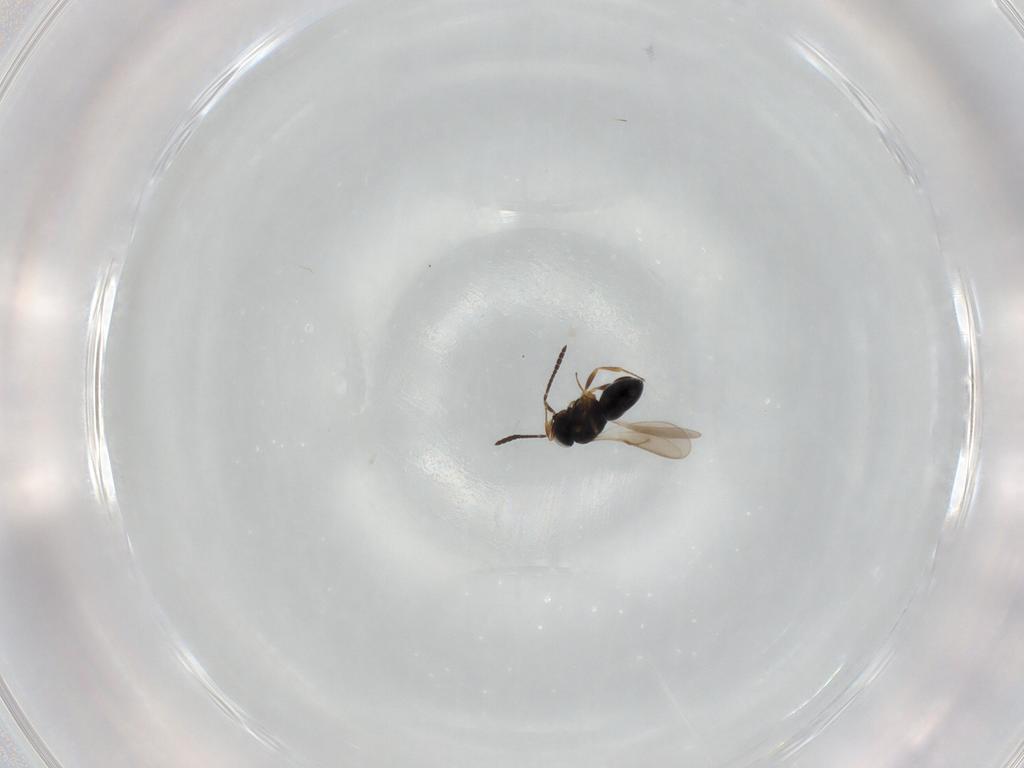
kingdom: Animalia
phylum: Arthropoda
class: Insecta
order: Hymenoptera
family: Scelionidae
